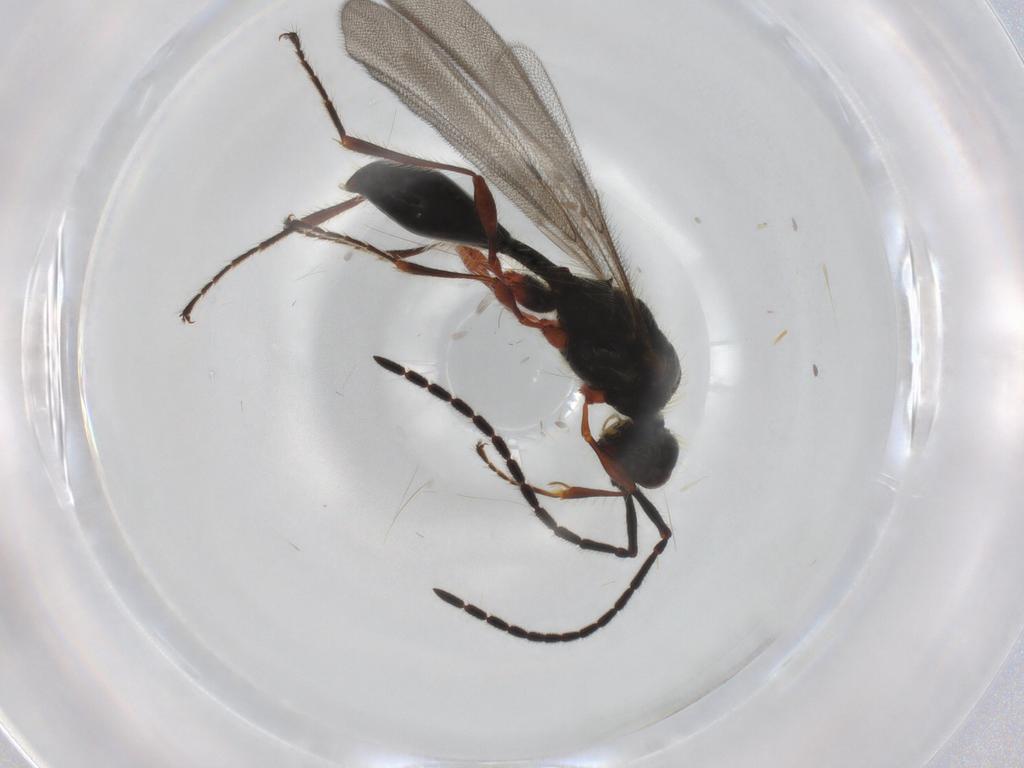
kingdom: Animalia
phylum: Arthropoda
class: Insecta
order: Hymenoptera
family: Diapriidae
